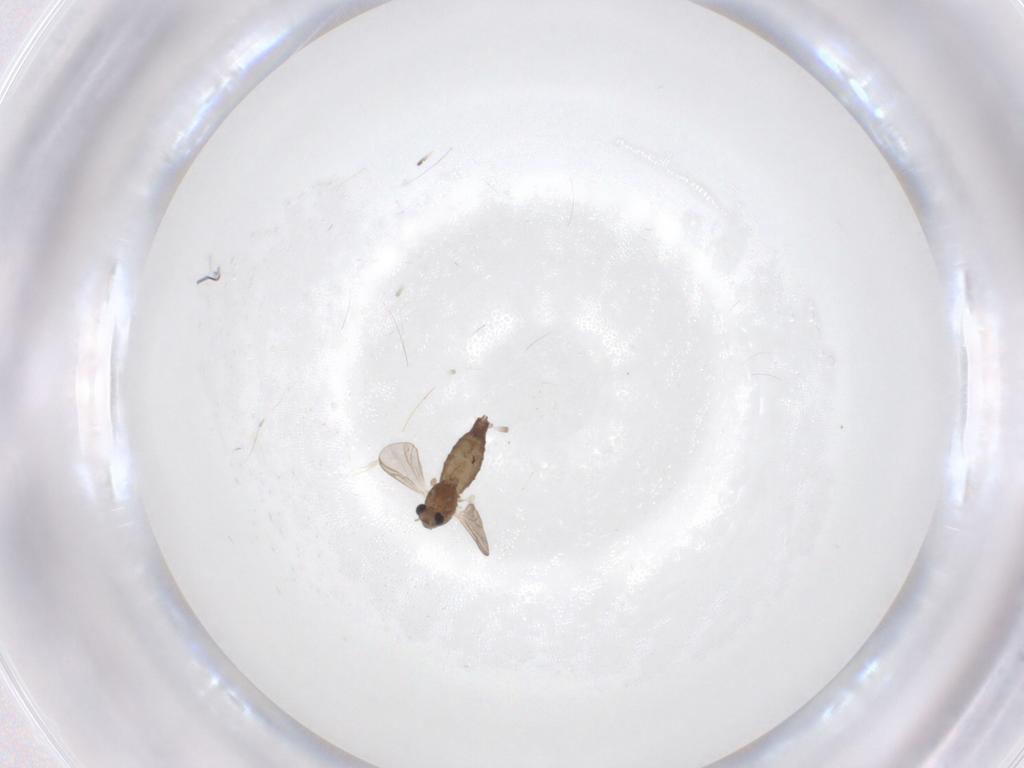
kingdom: Animalia
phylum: Arthropoda
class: Insecta
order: Diptera
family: Chironomidae
